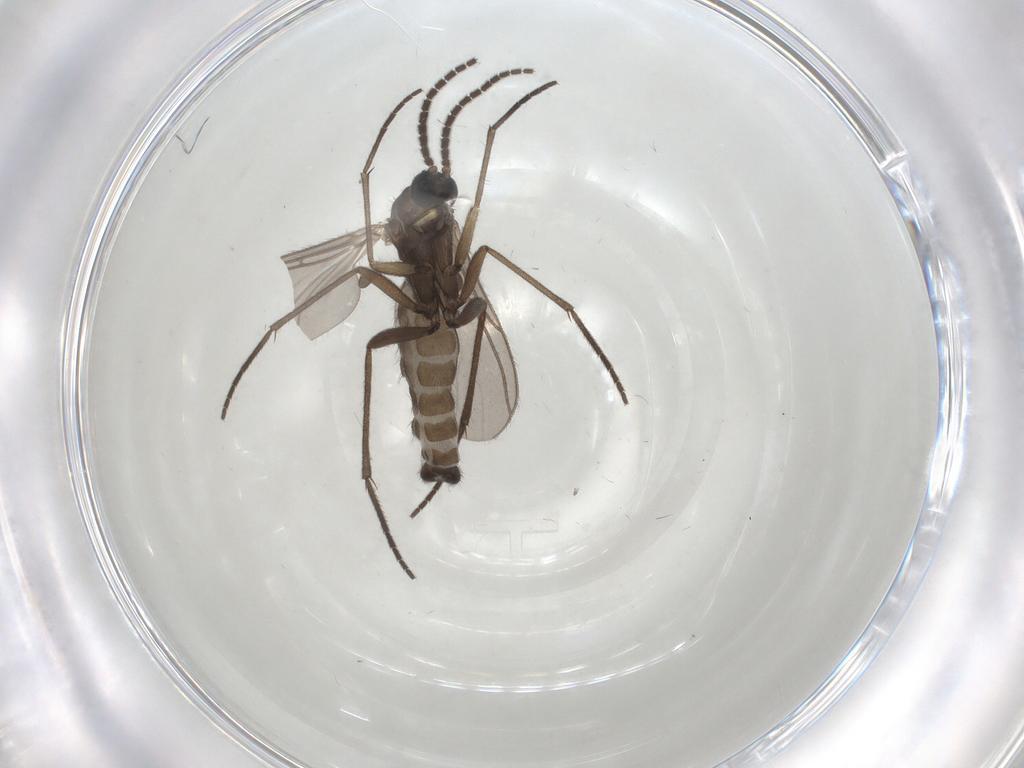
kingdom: Animalia
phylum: Arthropoda
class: Insecta
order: Diptera
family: Sciaridae
